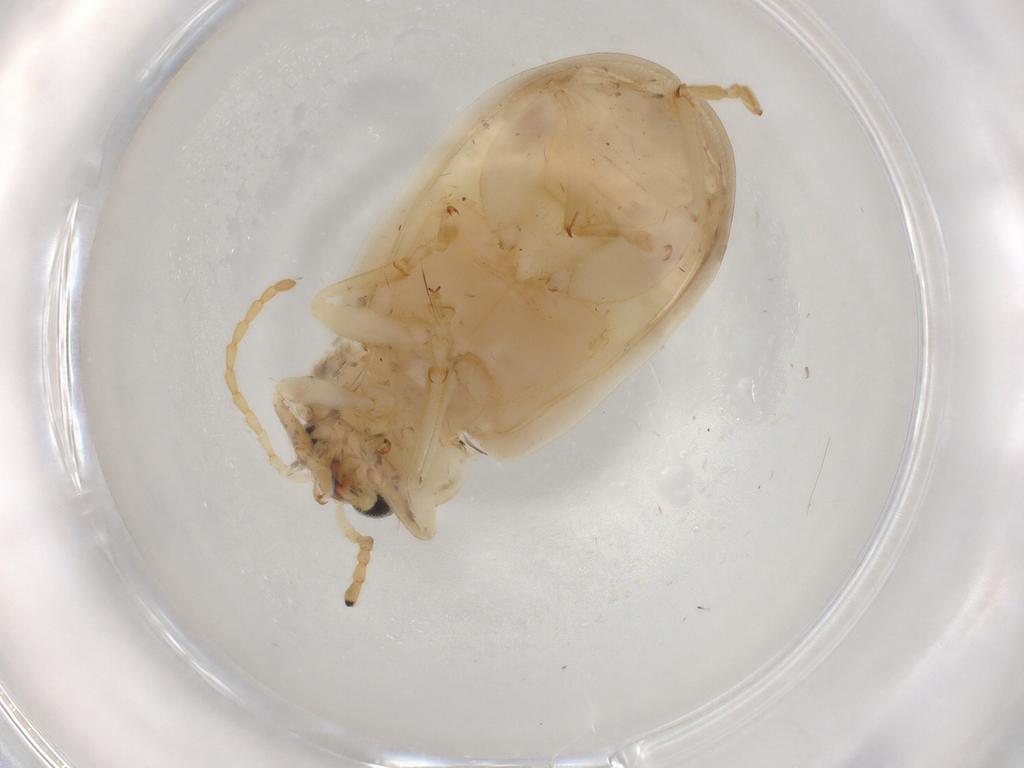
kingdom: Animalia
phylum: Arthropoda
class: Insecta
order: Coleoptera
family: Chrysomelidae
